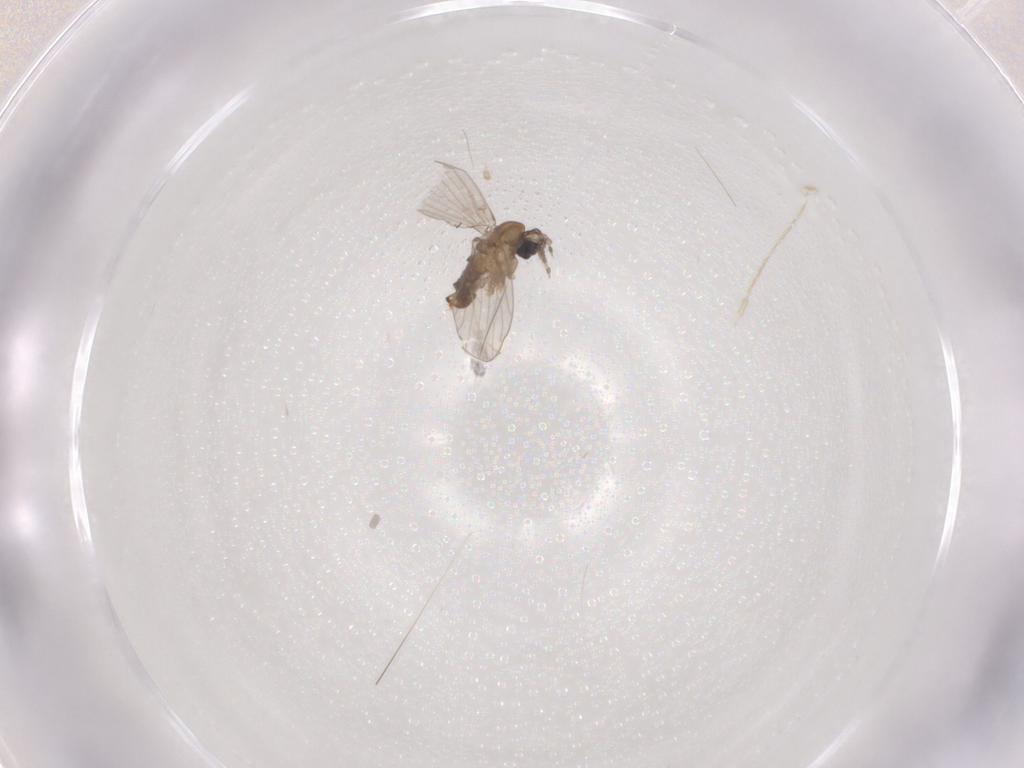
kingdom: Animalia
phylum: Arthropoda
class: Insecta
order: Diptera
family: Psychodidae
